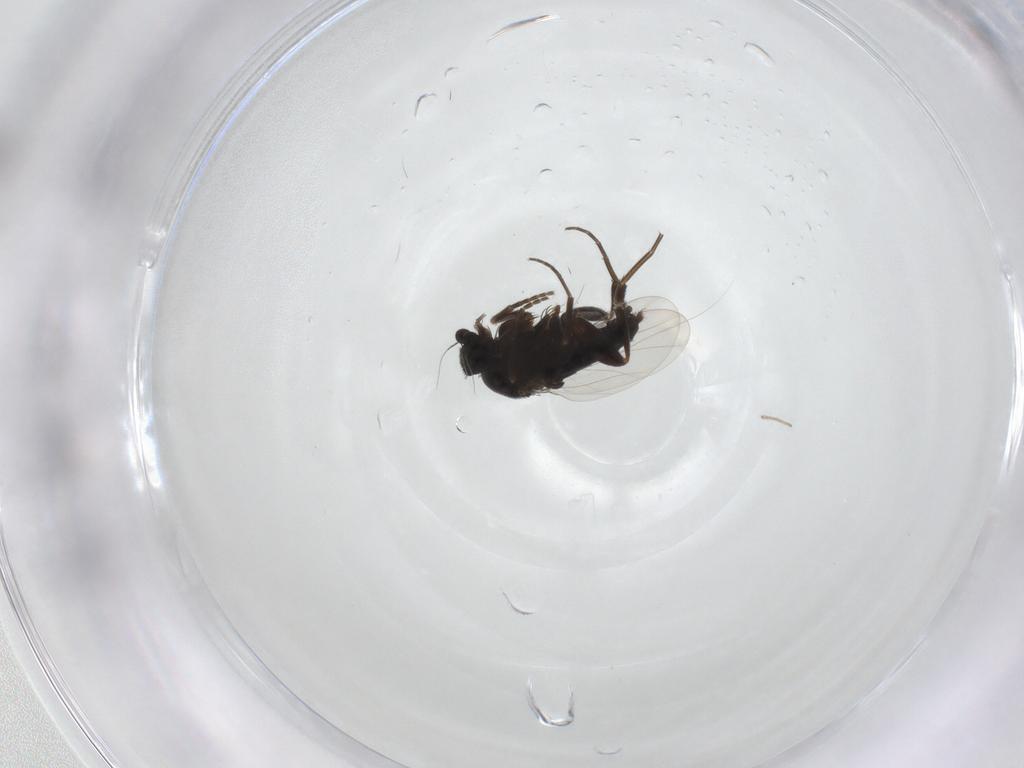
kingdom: Animalia
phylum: Arthropoda
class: Insecta
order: Diptera
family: Phoridae
